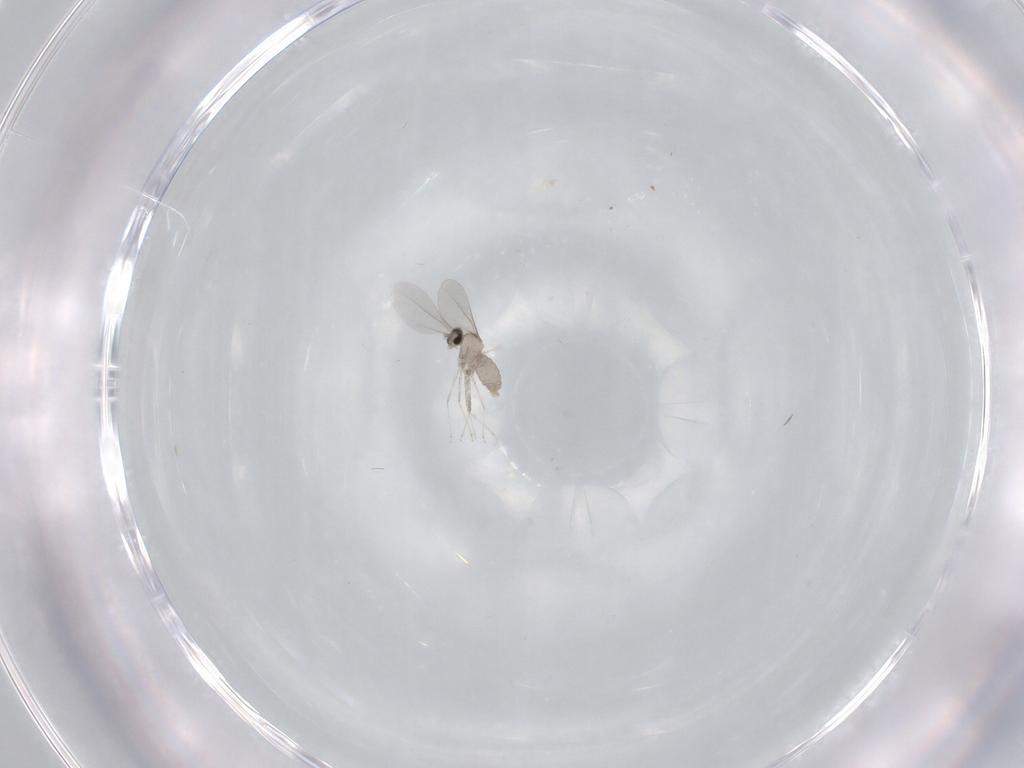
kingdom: Animalia
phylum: Arthropoda
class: Insecta
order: Diptera
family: Cecidomyiidae
